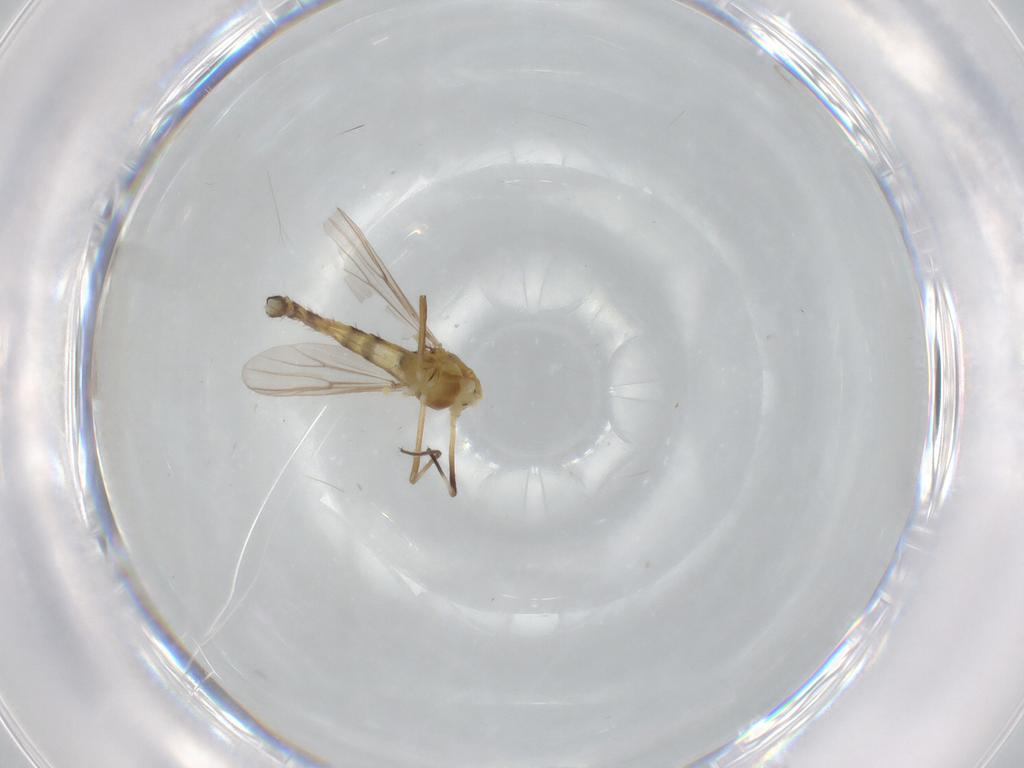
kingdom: Animalia
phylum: Arthropoda
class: Insecta
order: Diptera
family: Chironomidae
